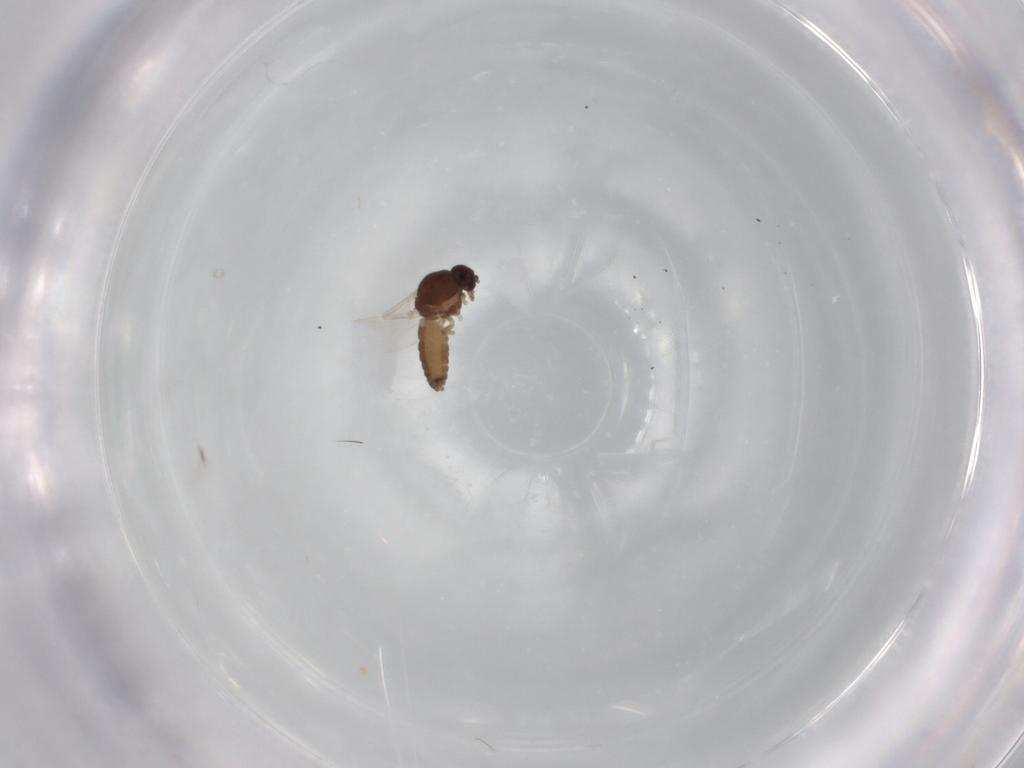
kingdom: Animalia
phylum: Arthropoda
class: Insecta
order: Diptera
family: Ceratopogonidae
